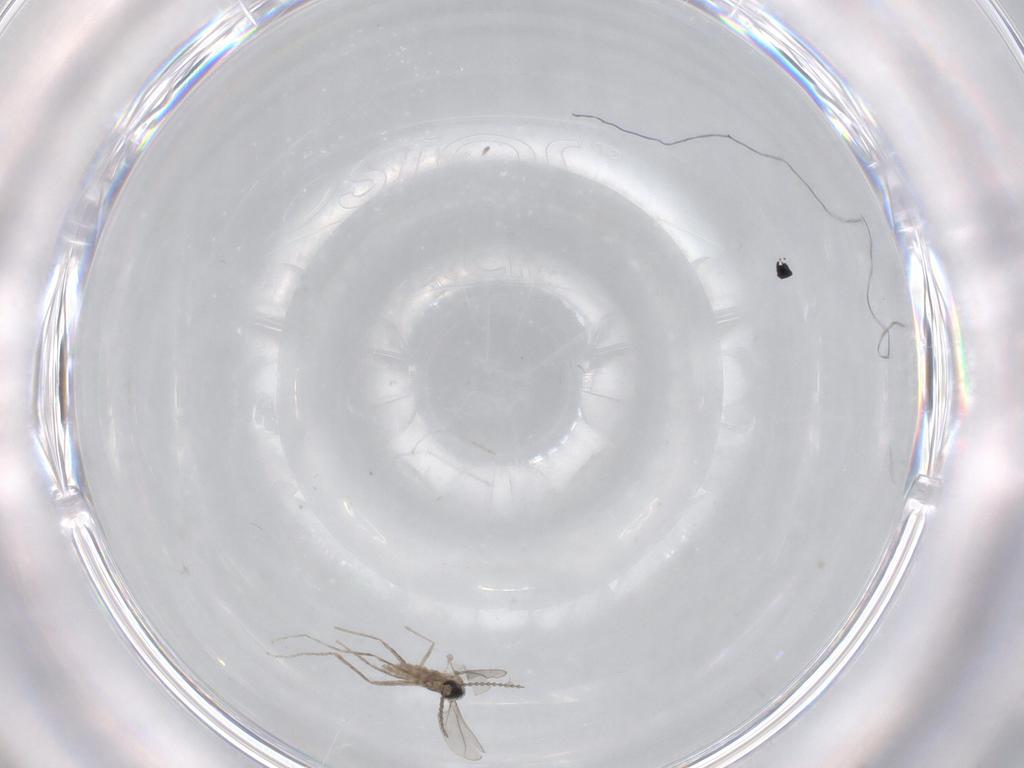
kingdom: Animalia
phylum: Arthropoda
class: Insecta
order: Diptera
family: Cecidomyiidae
